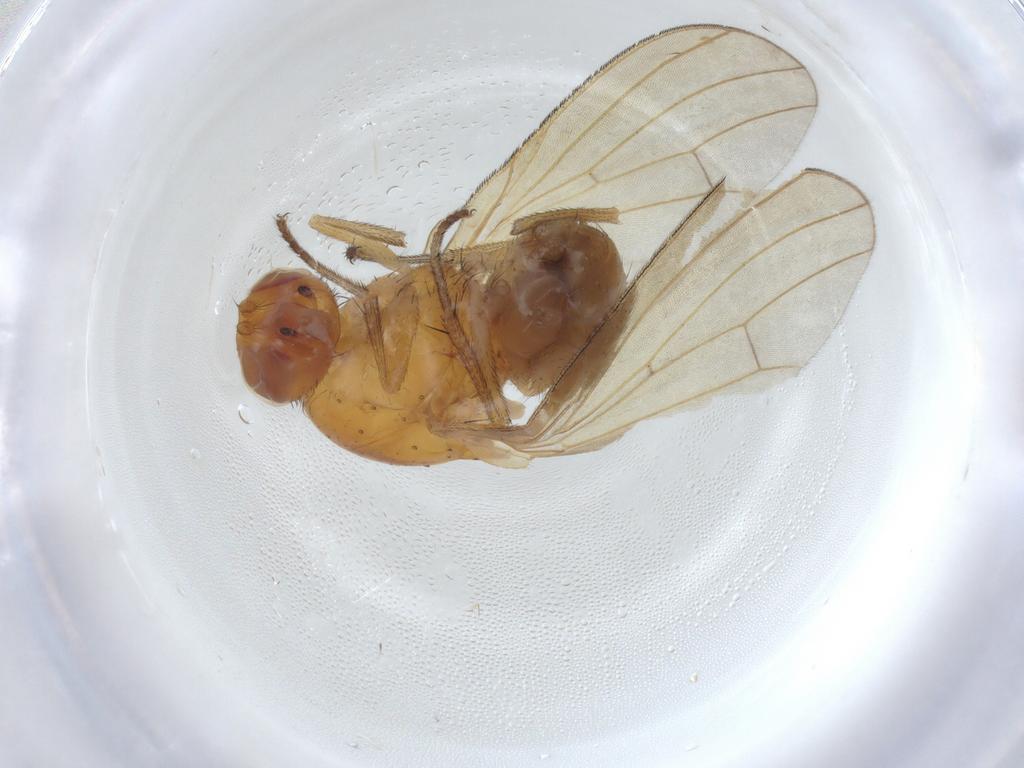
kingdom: Animalia
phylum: Arthropoda
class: Insecta
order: Diptera
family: Lauxaniidae
